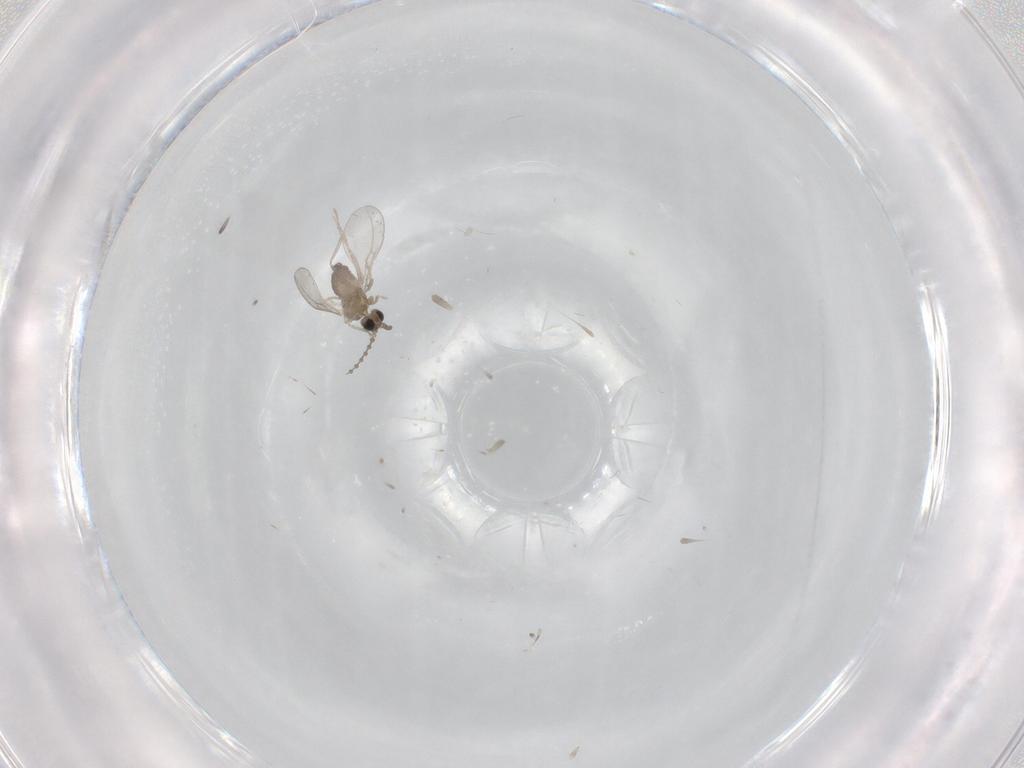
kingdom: Animalia
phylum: Arthropoda
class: Insecta
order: Diptera
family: Cecidomyiidae
